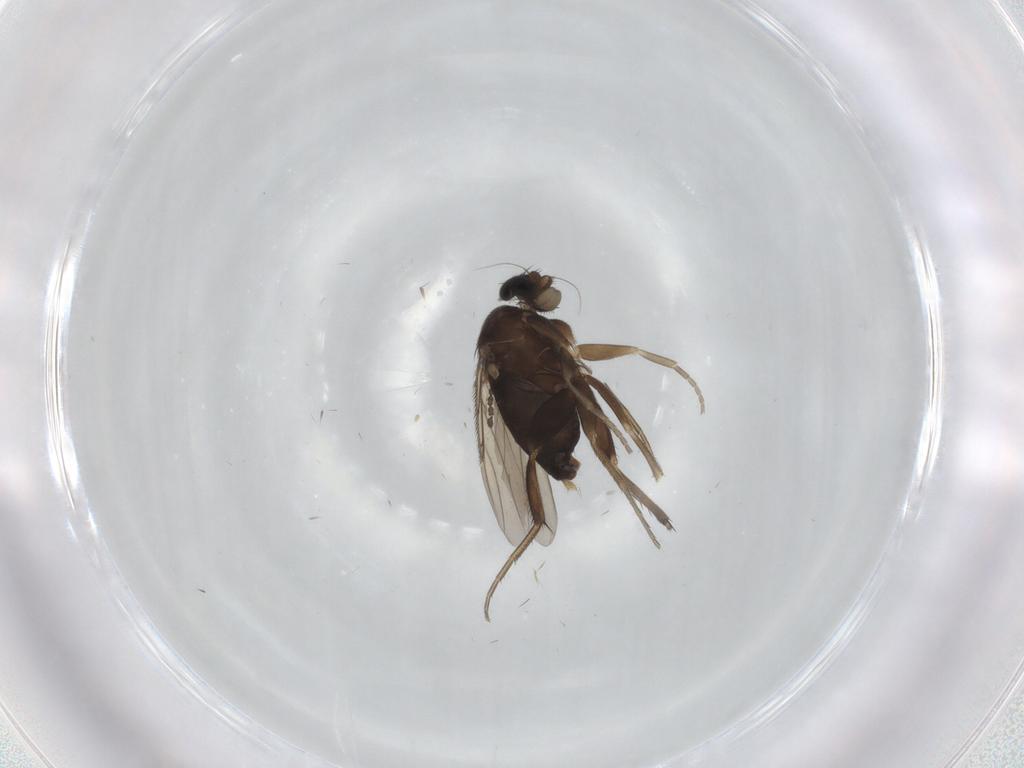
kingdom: Animalia
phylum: Arthropoda
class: Insecta
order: Diptera
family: Phoridae
